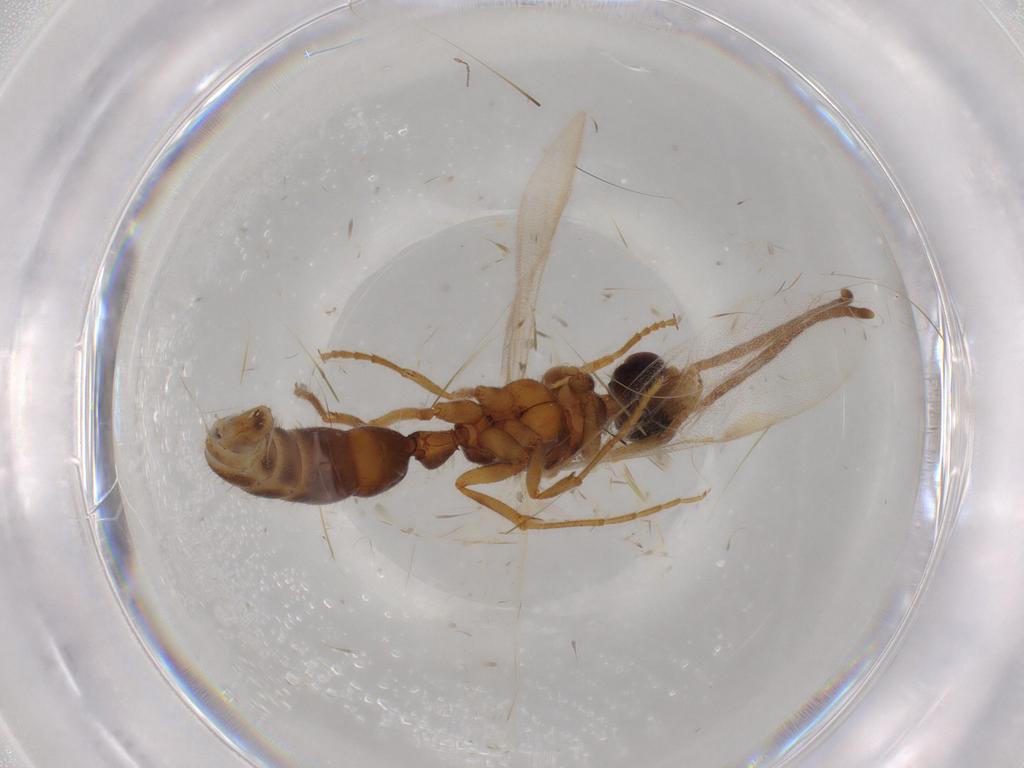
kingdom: Animalia
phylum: Arthropoda
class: Insecta
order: Hymenoptera
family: Formicidae
